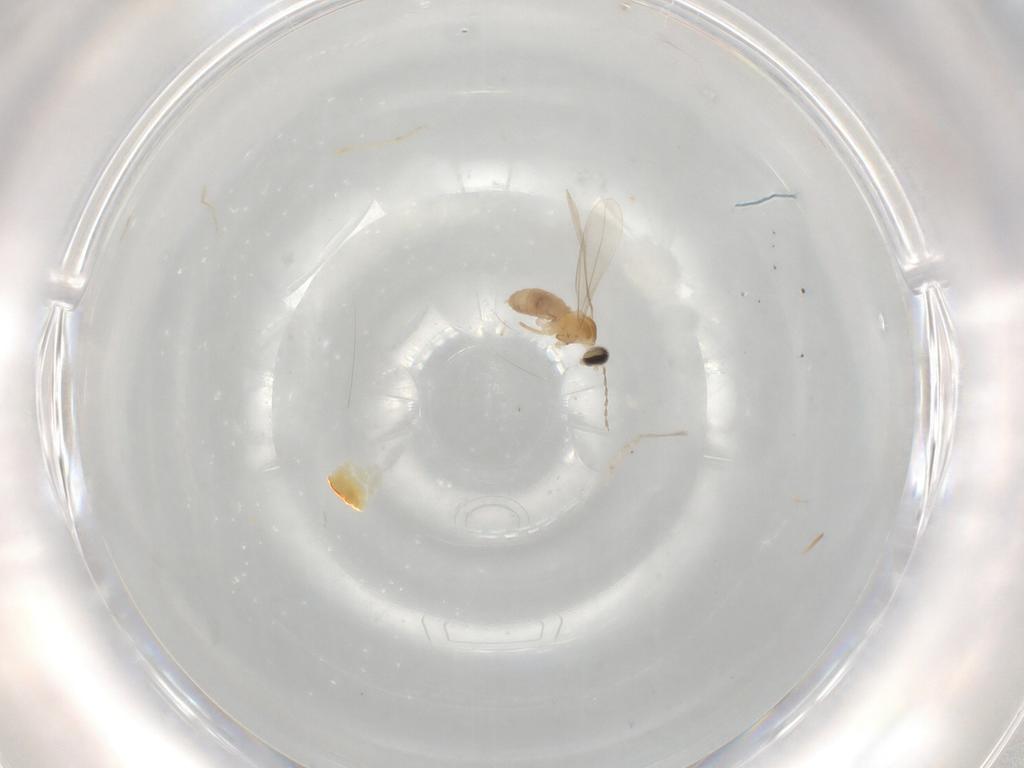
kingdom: Animalia
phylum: Arthropoda
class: Insecta
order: Diptera
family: Cecidomyiidae
